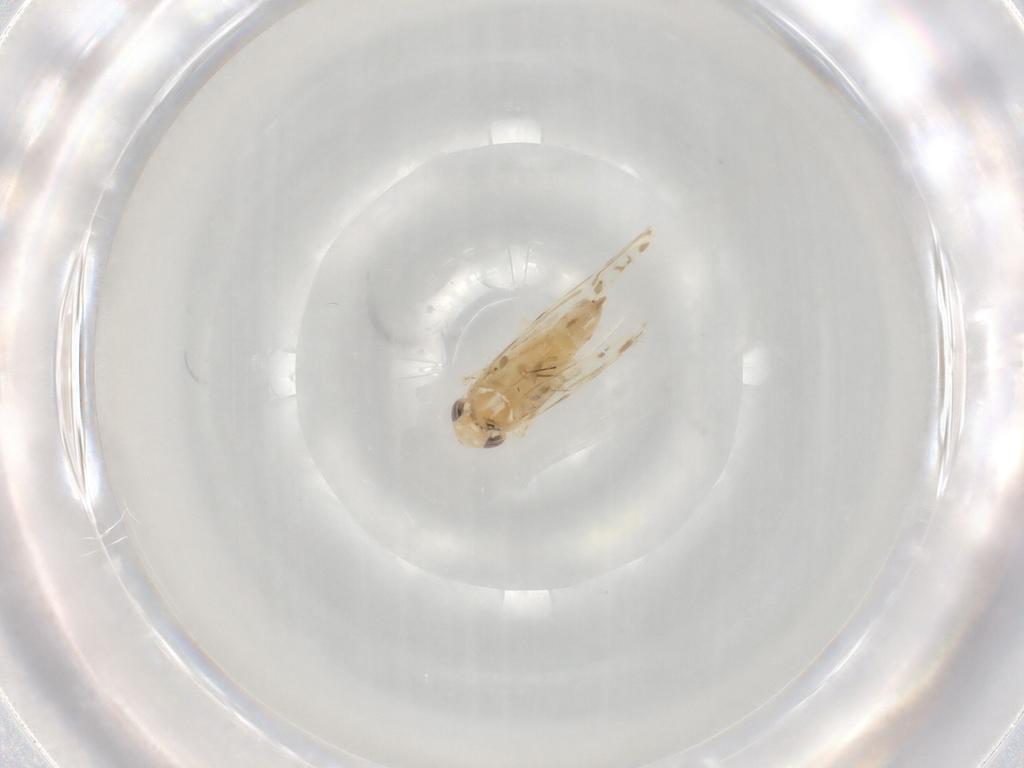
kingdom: Animalia
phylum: Arthropoda
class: Insecta
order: Hemiptera
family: Cicadellidae
